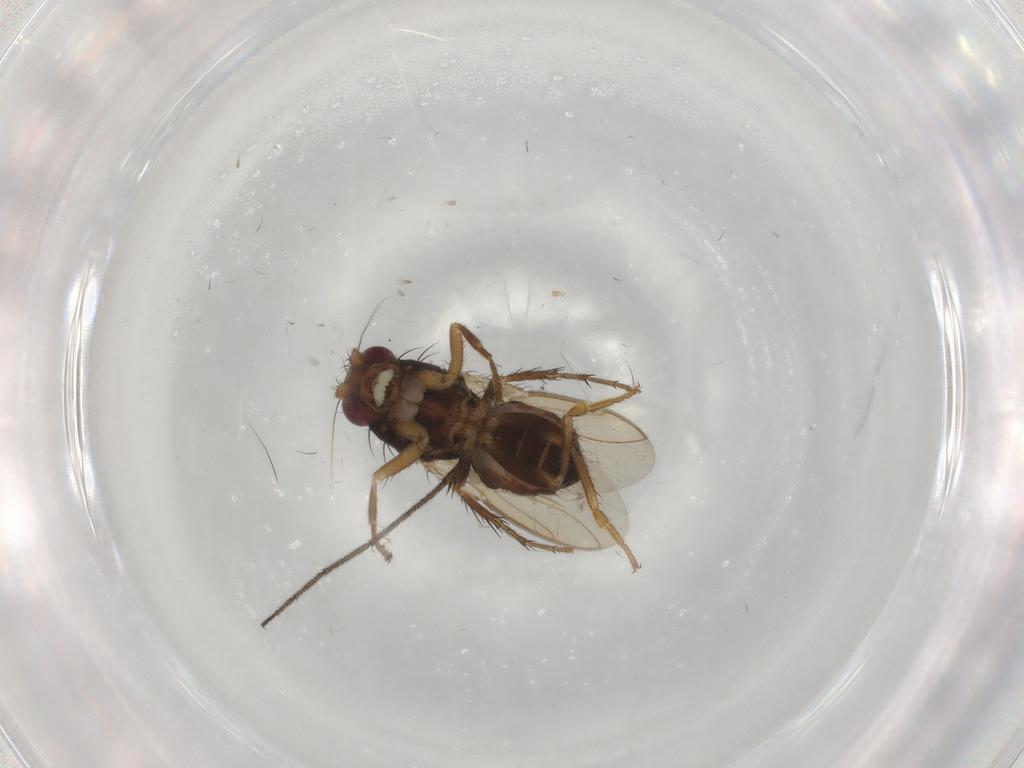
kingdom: Animalia
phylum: Arthropoda
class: Insecta
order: Diptera
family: Sphaeroceridae
